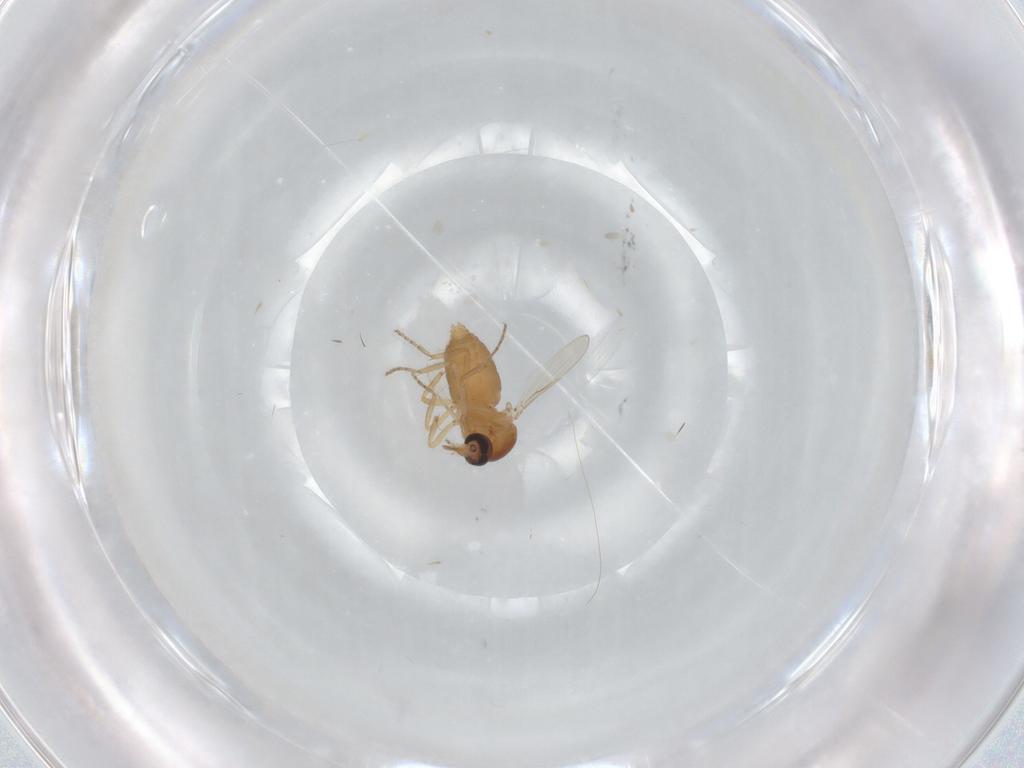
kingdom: Animalia
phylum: Arthropoda
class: Insecta
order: Diptera
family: Ceratopogonidae
